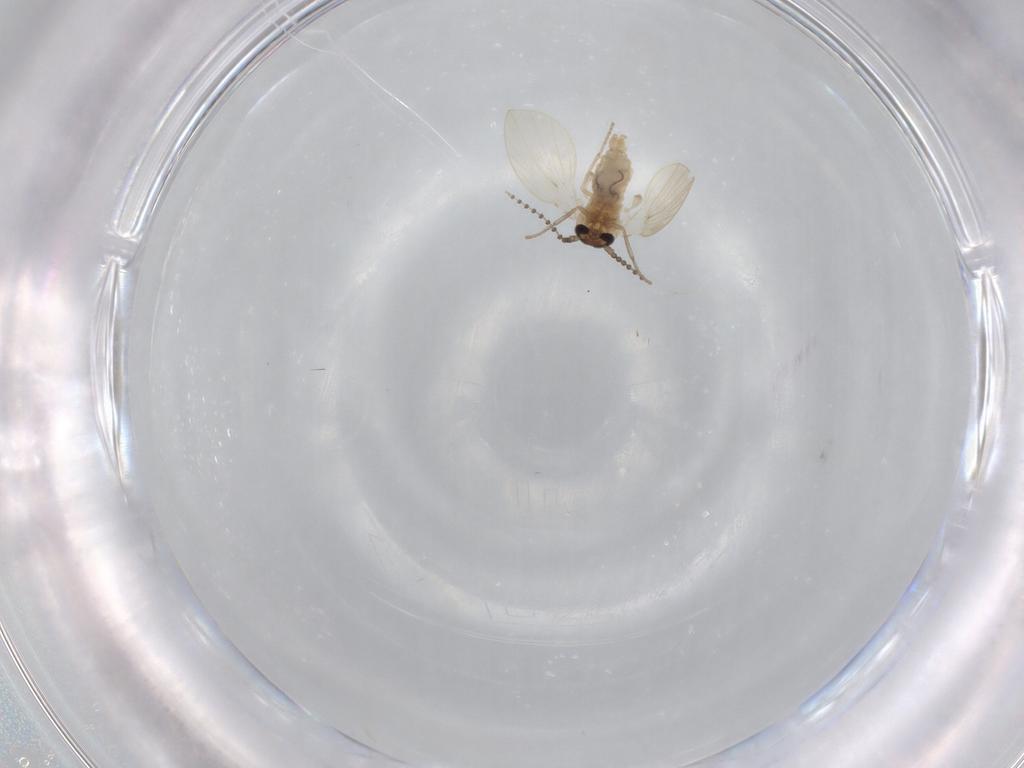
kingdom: Animalia
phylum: Arthropoda
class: Insecta
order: Diptera
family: Psychodidae
